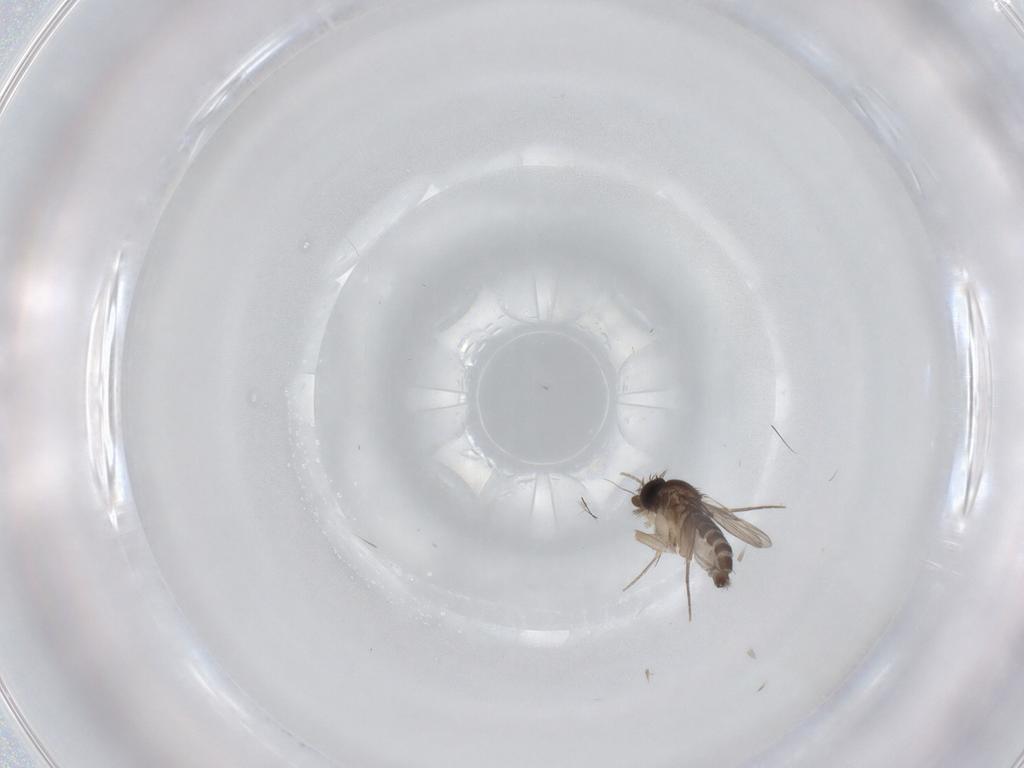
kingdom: Animalia
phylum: Arthropoda
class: Insecta
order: Diptera
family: Phoridae
